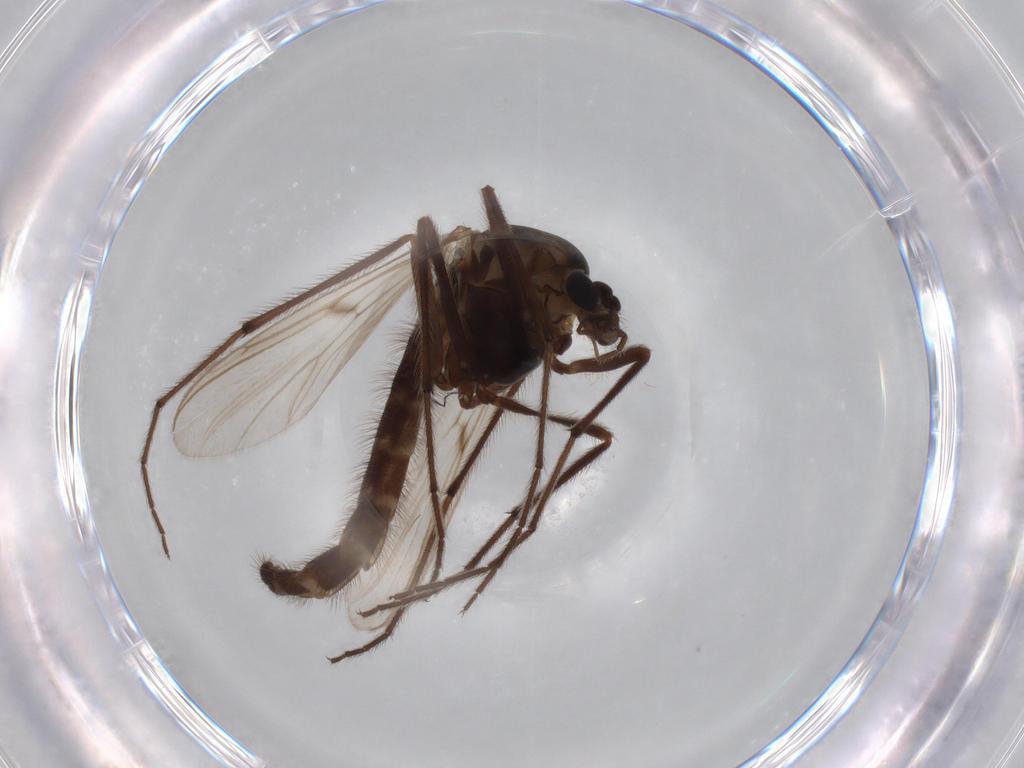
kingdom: Animalia
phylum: Arthropoda
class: Insecta
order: Diptera
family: Chironomidae
